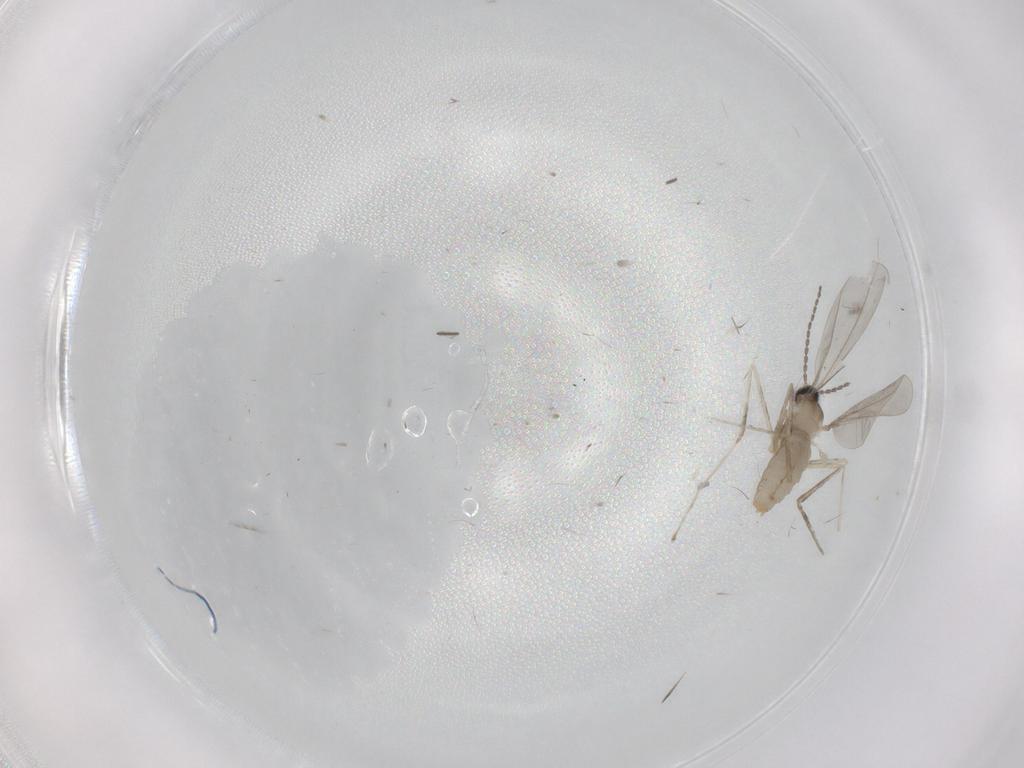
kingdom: Animalia
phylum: Arthropoda
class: Insecta
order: Diptera
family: Cecidomyiidae
